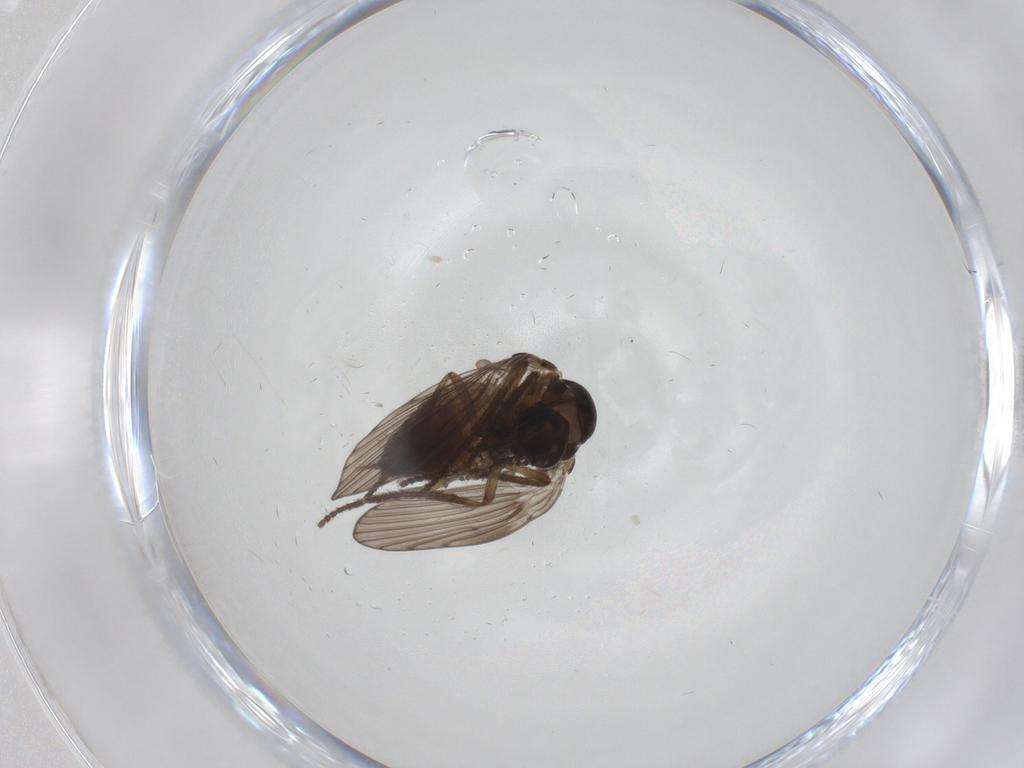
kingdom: Animalia
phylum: Arthropoda
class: Insecta
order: Diptera
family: Psychodidae
